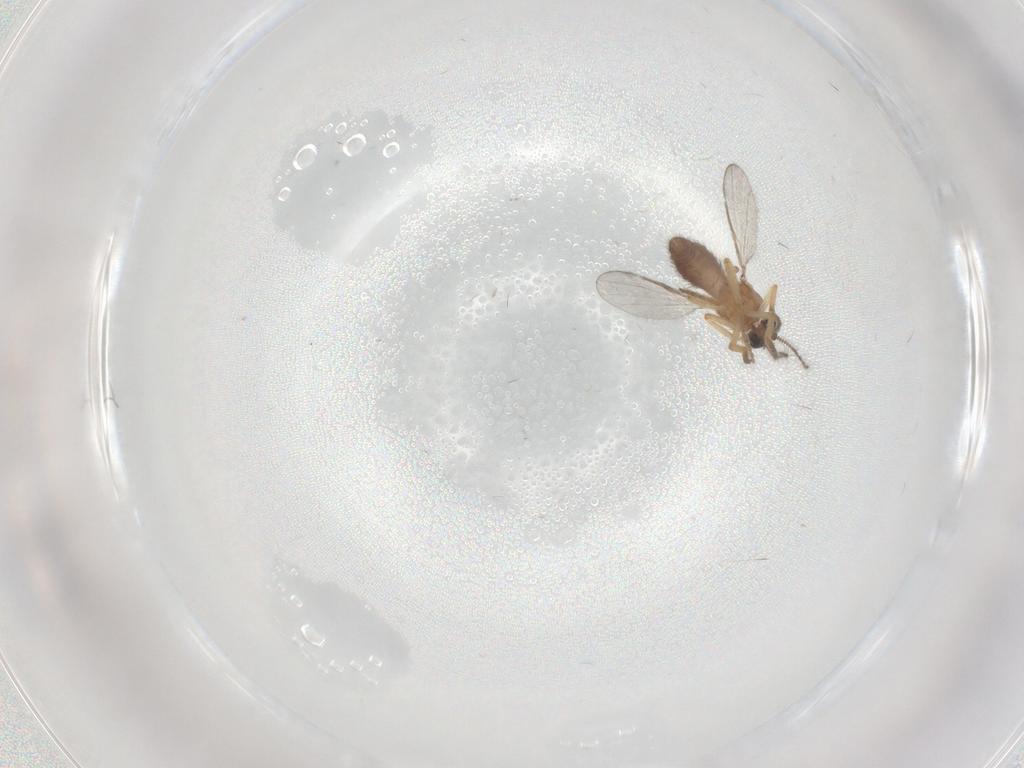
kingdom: Animalia
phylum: Arthropoda
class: Insecta
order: Diptera
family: Ceratopogonidae
